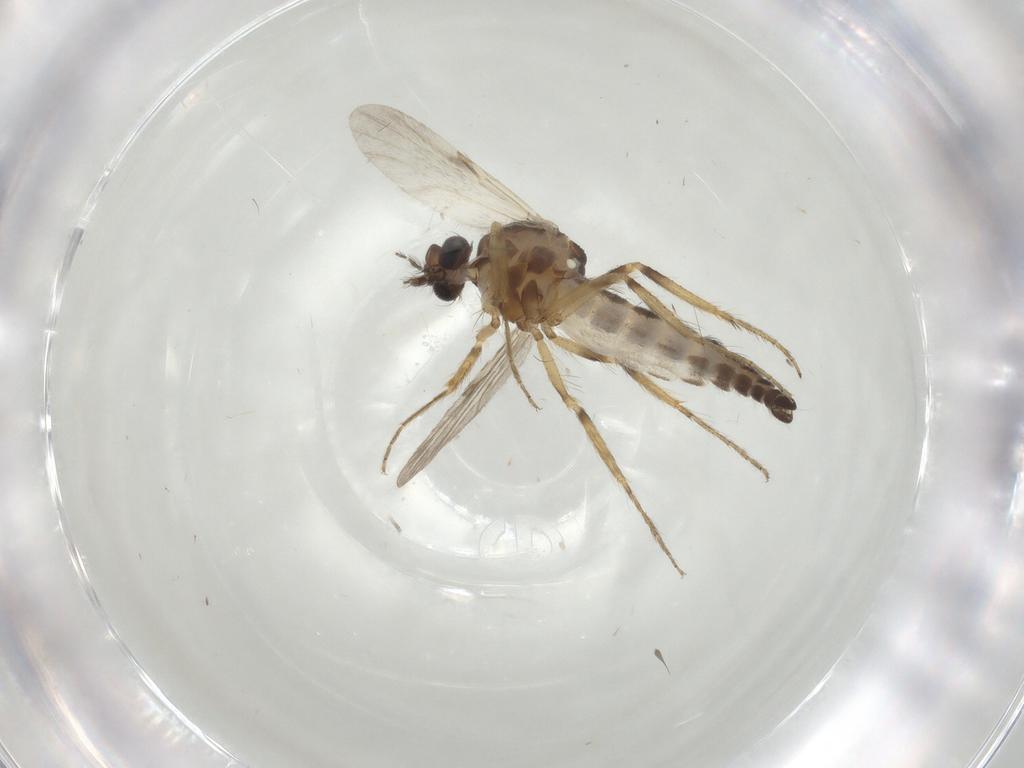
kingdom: Animalia
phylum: Arthropoda
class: Insecta
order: Diptera
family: Ceratopogonidae
